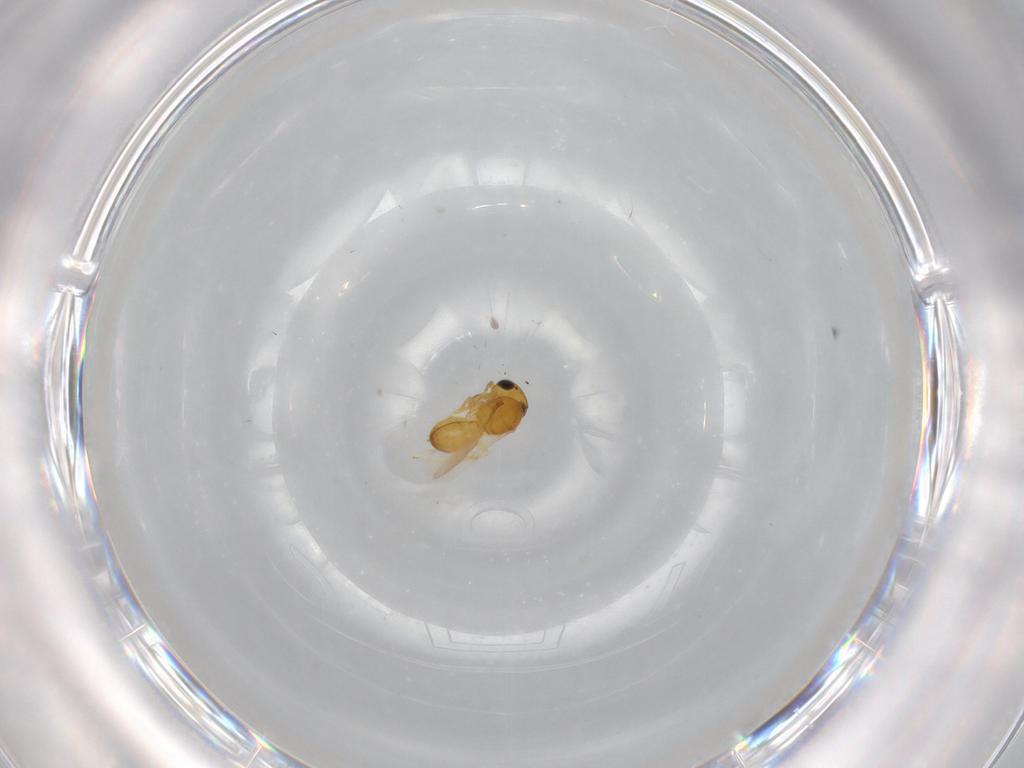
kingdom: Animalia
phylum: Arthropoda
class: Insecta
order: Hymenoptera
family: Scelionidae
